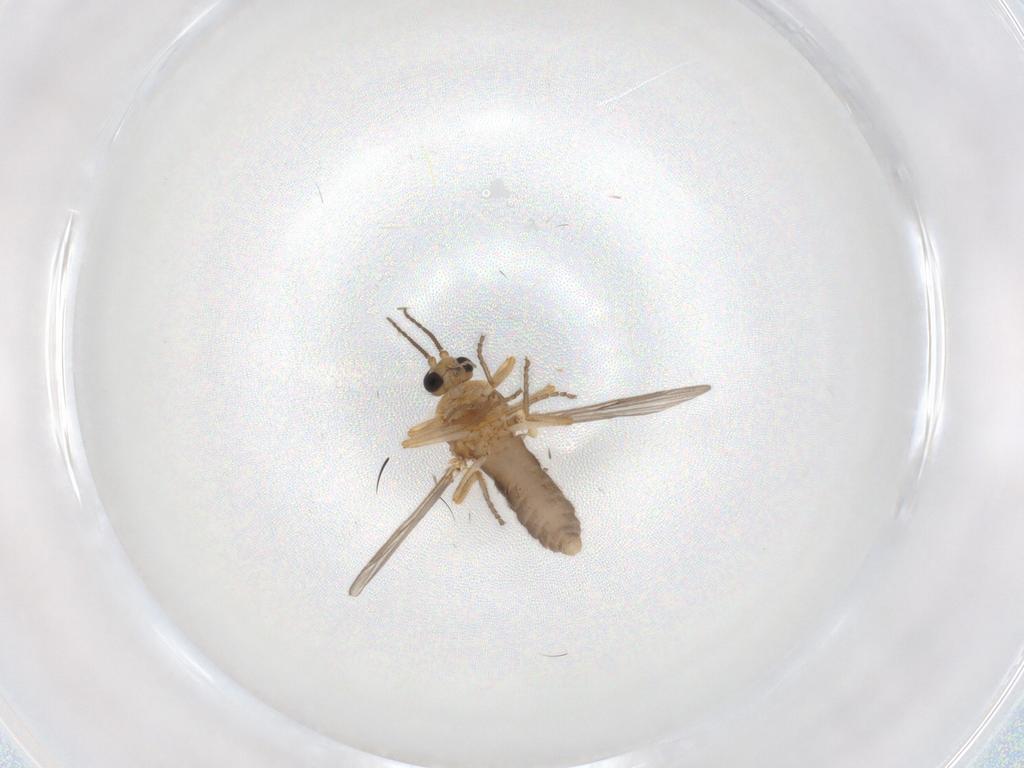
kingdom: Animalia
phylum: Arthropoda
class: Insecta
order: Diptera
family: Ceratopogonidae
